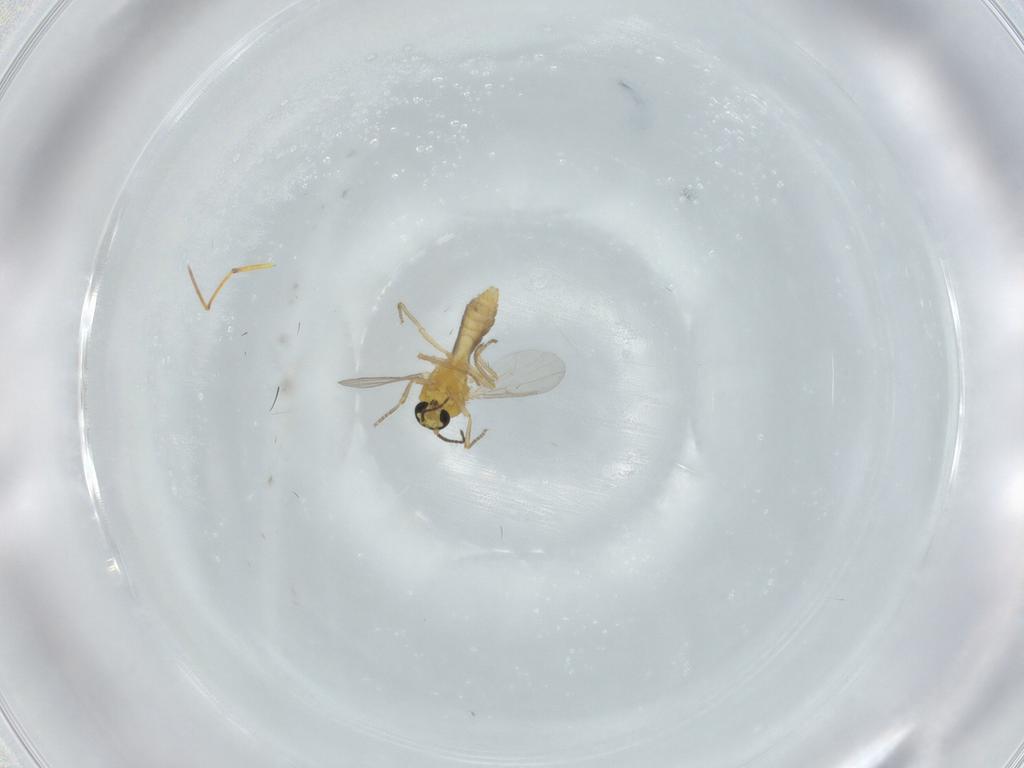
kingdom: Animalia
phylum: Arthropoda
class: Insecta
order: Diptera
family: Ceratopogonidae
